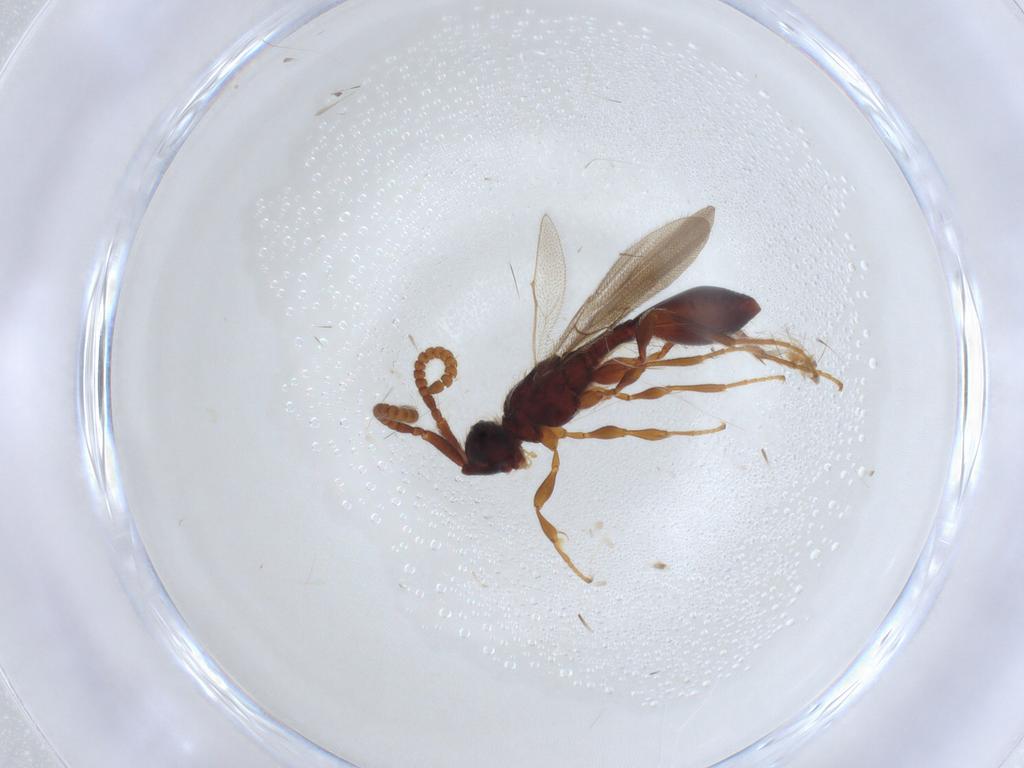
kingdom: Animalia
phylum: Arthropoda
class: Insecta
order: Hymenoptera
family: Formicidae
